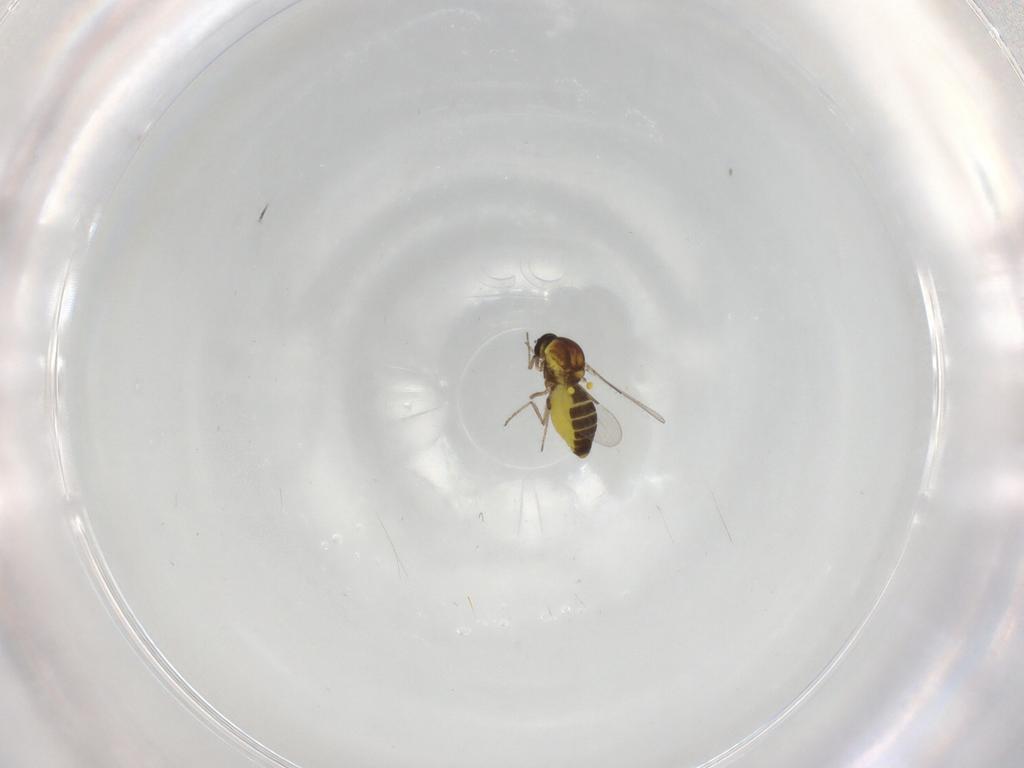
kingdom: Animalia
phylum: Arthropoda
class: Insecta
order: Diptera
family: Ceratopogonidae
